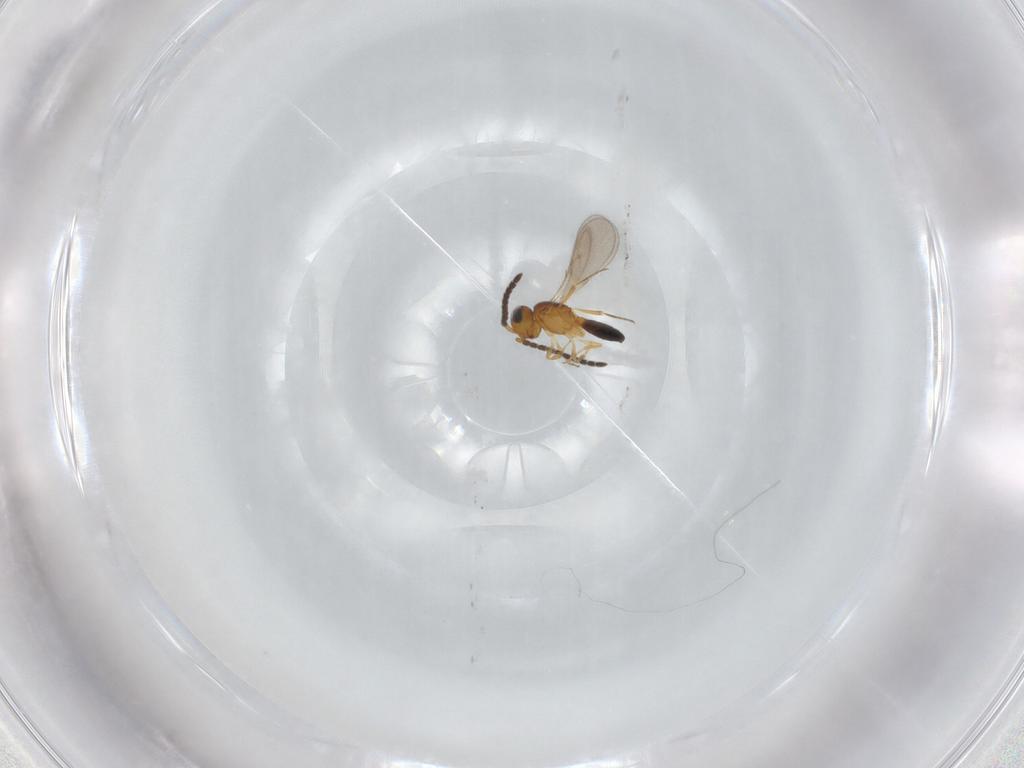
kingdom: Animalia
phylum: Arthropoda
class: Insecta
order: Hymenoptera
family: Scelionidae
